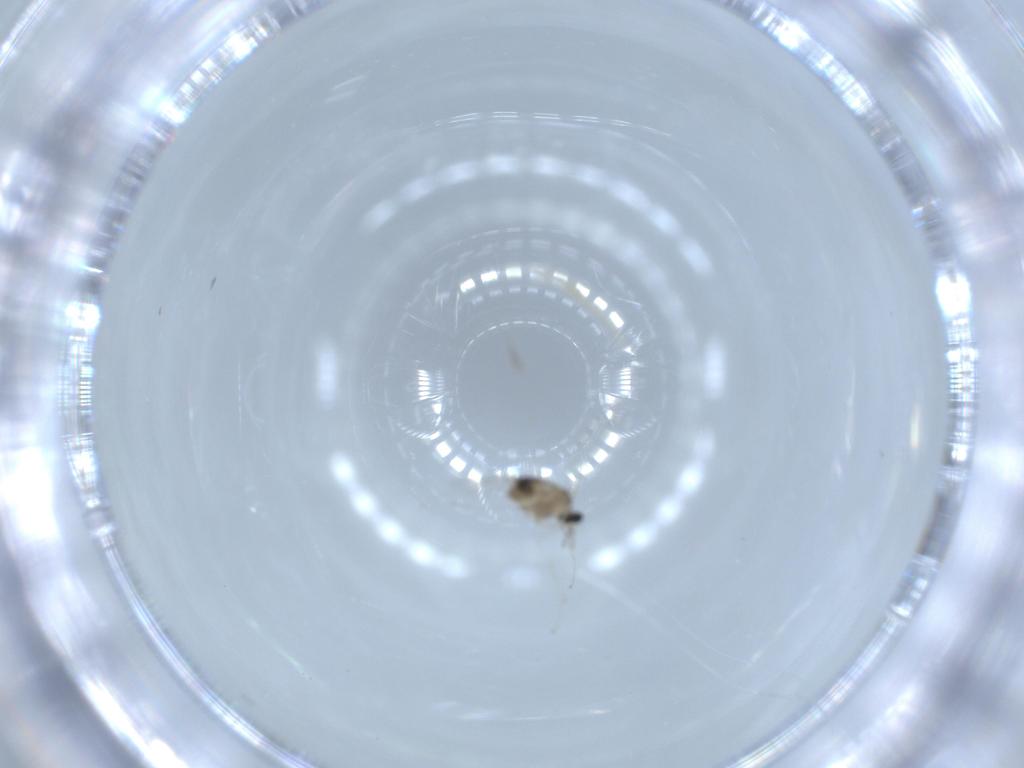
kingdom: Animalia
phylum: Arthropoda
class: Insecta
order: Diptera
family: Cecidomyiidae
